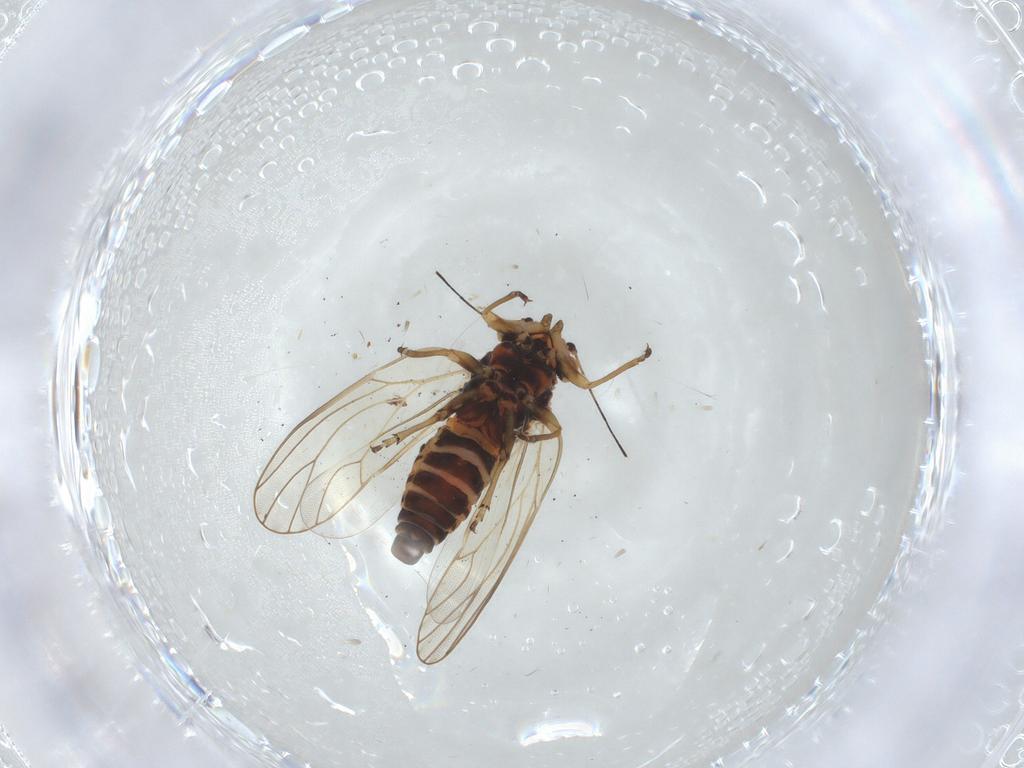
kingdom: Animalia
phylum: Arthropoda
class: Insecta
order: Hemiptera
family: Psyllidae
